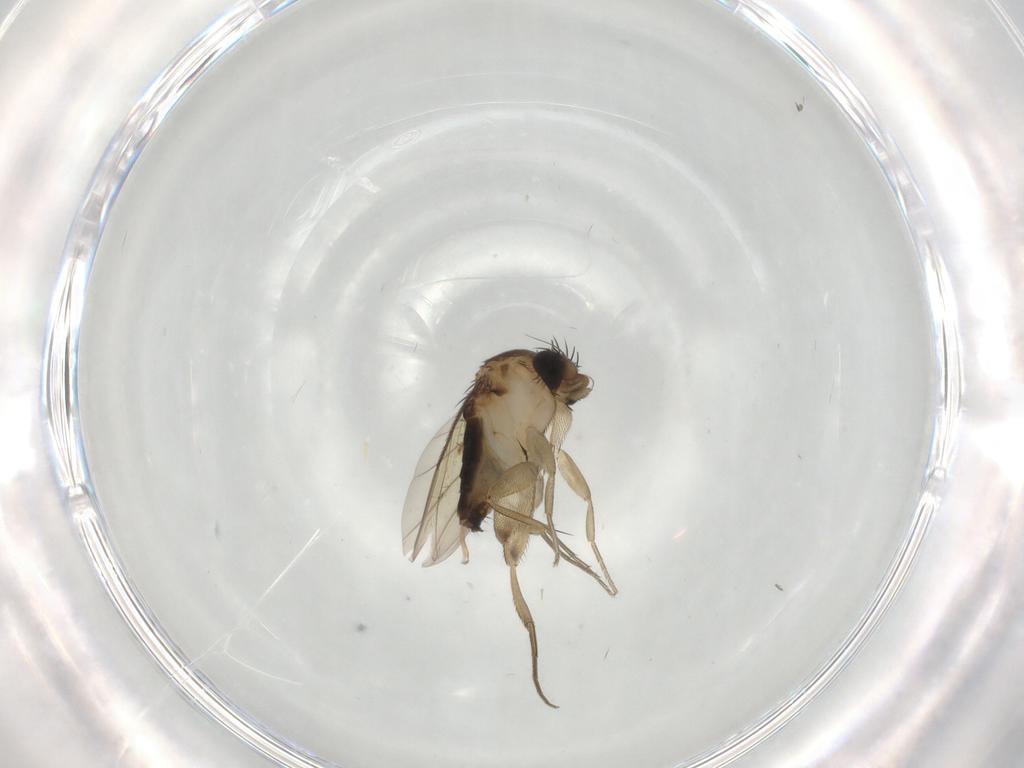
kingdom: Animalia
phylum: Arthropoda
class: Insecta
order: Diptera
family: Phoridae
